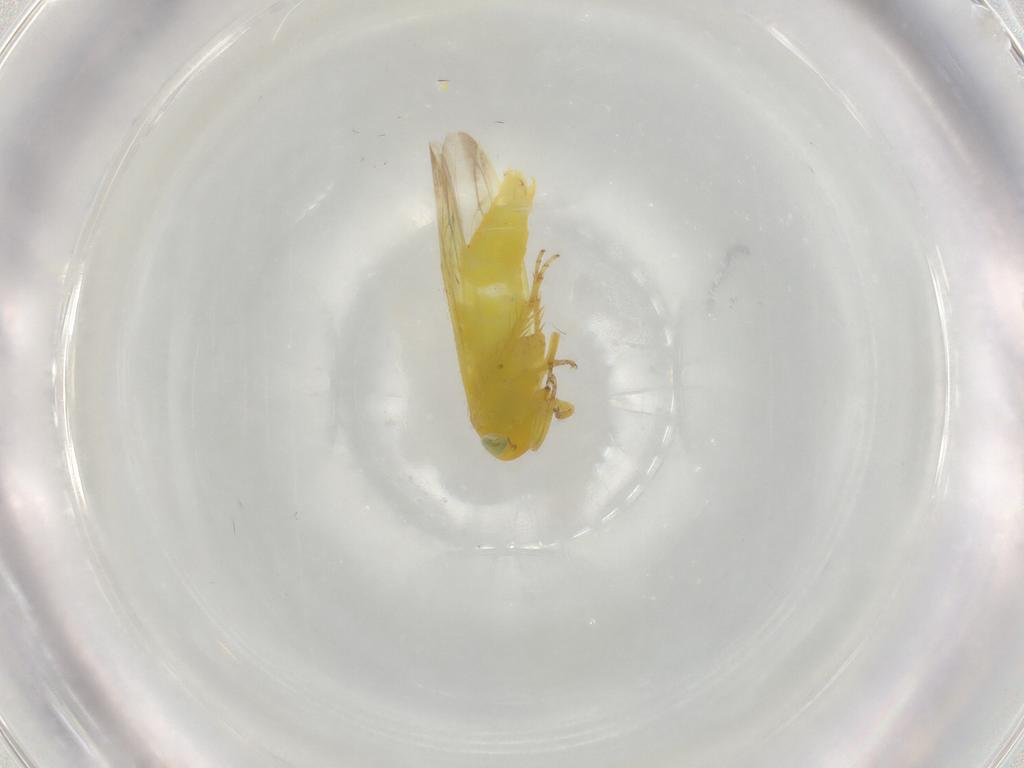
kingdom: Animalia
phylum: Arthropoda
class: Insecta
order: Hemiptera
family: Cicadellidae
